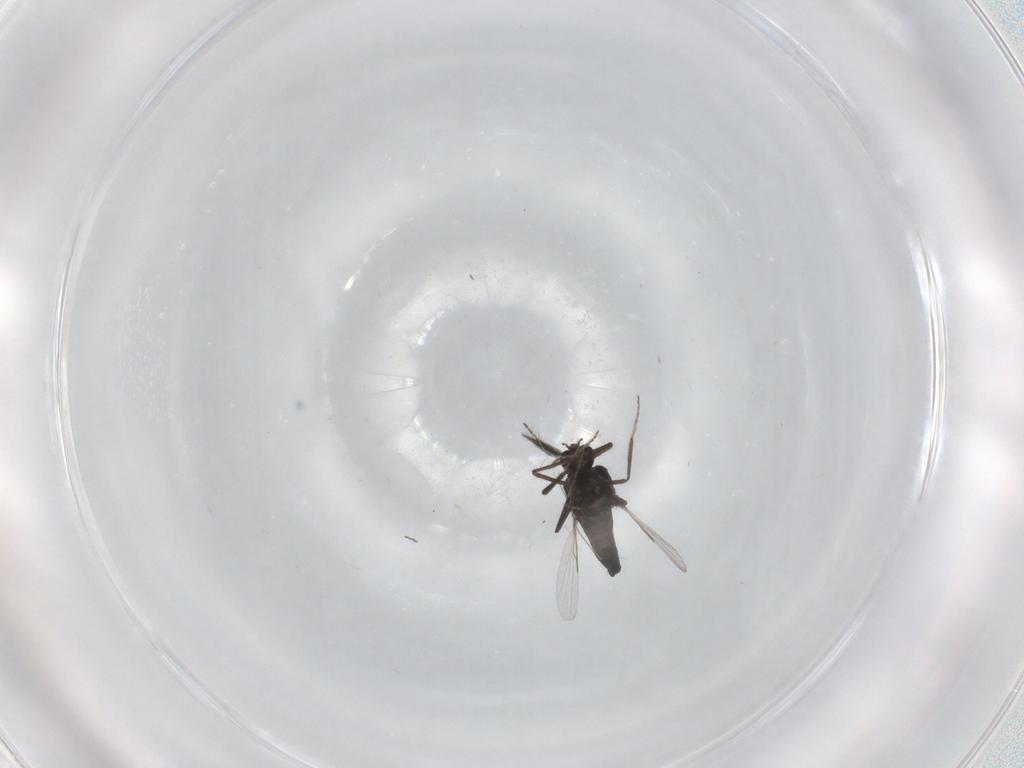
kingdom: Animalia
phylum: Arthropoda
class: Insecta
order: Diptera
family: Ceratopogonidae
